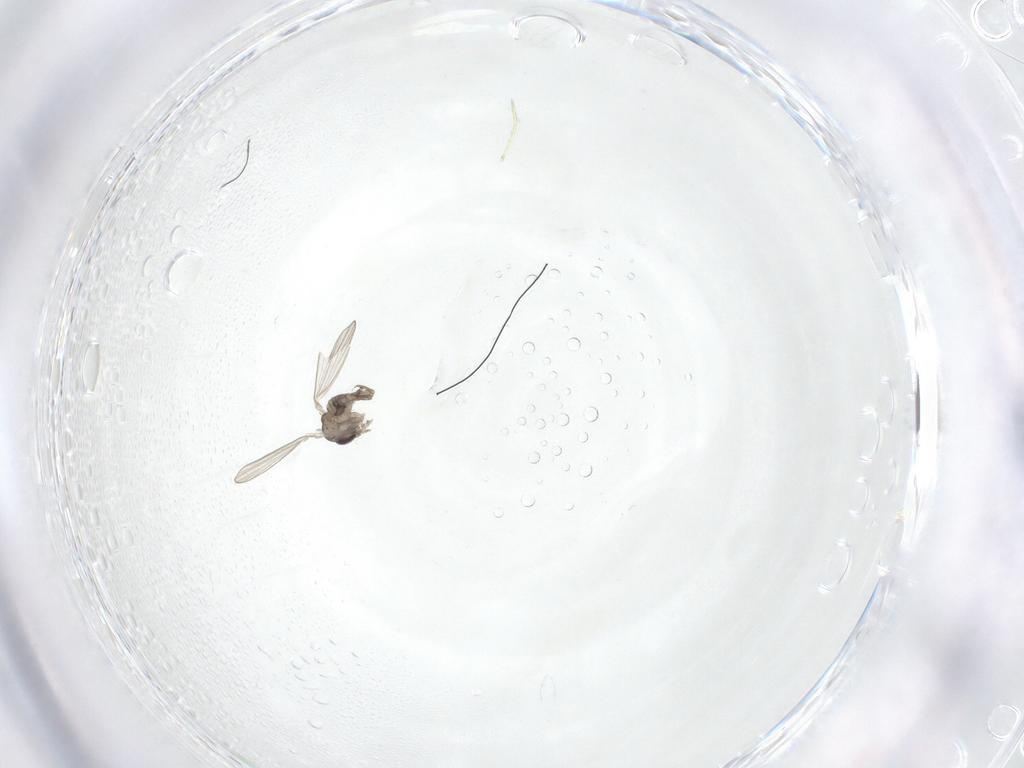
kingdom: Animalia
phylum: Arthropoda
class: Insecta
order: Diptera
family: Psychodidae
